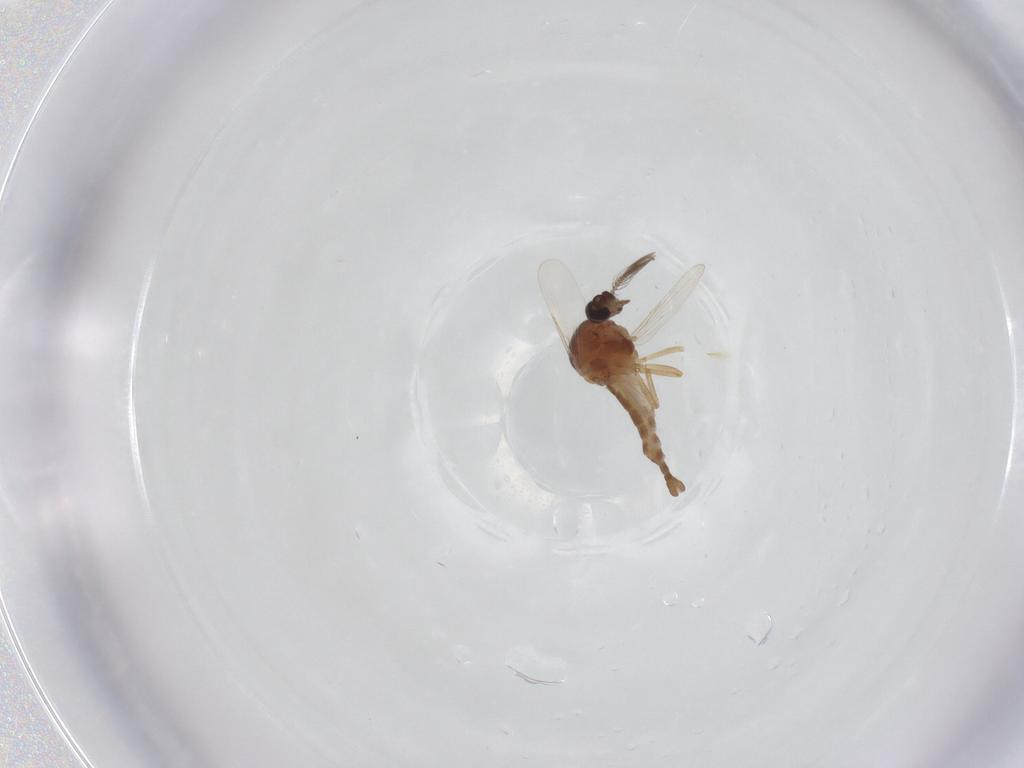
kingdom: Animalia
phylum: Arthropoda
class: Insecta
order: Diptera
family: Ceratopogonidae
